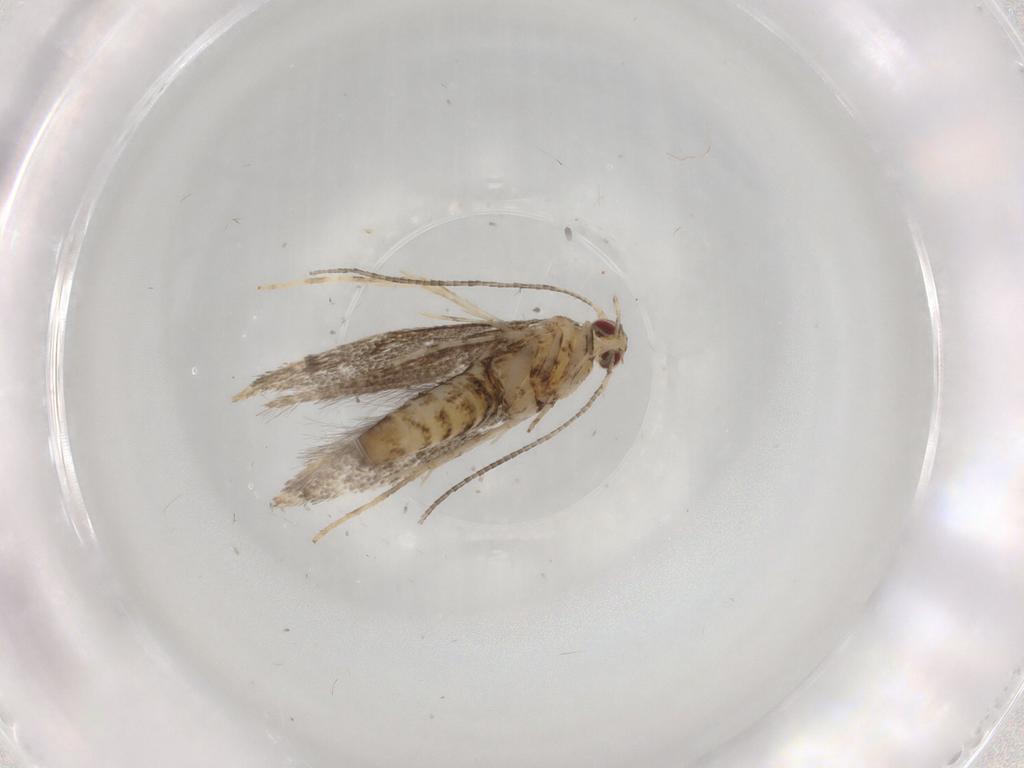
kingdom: Animalia
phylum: Arthropoda
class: Insecta
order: Lepidoptera
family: Gracillariidae
